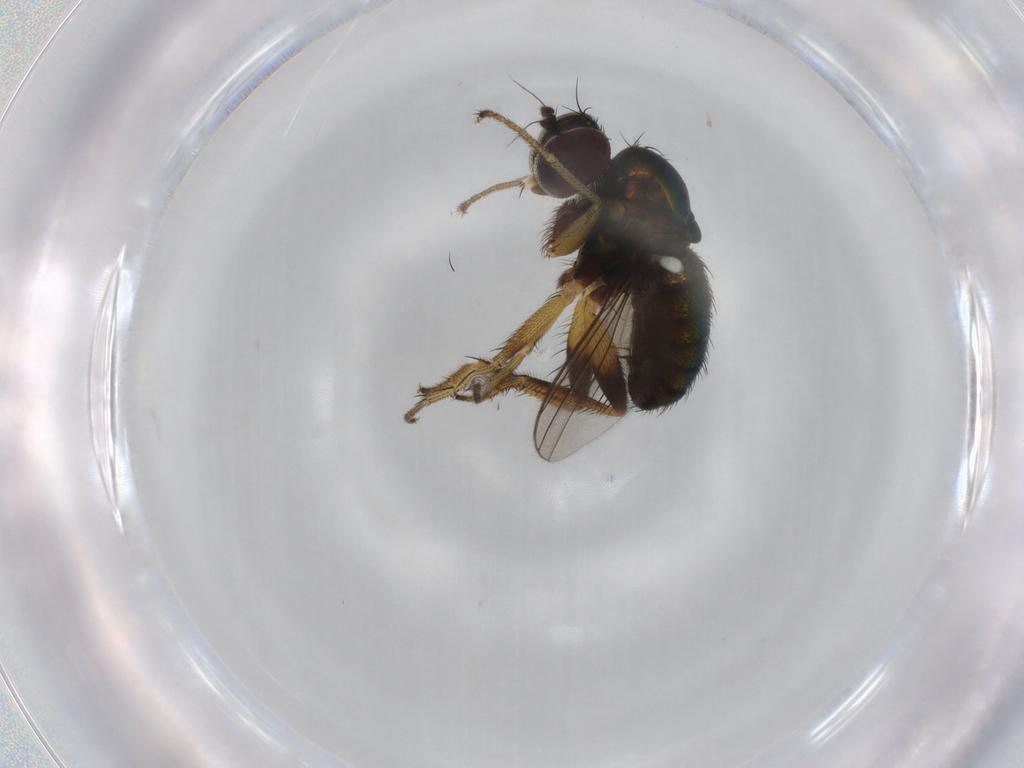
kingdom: Animalia
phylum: Arthropoda
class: Insecta
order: Diptera
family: Dolichopodidae
